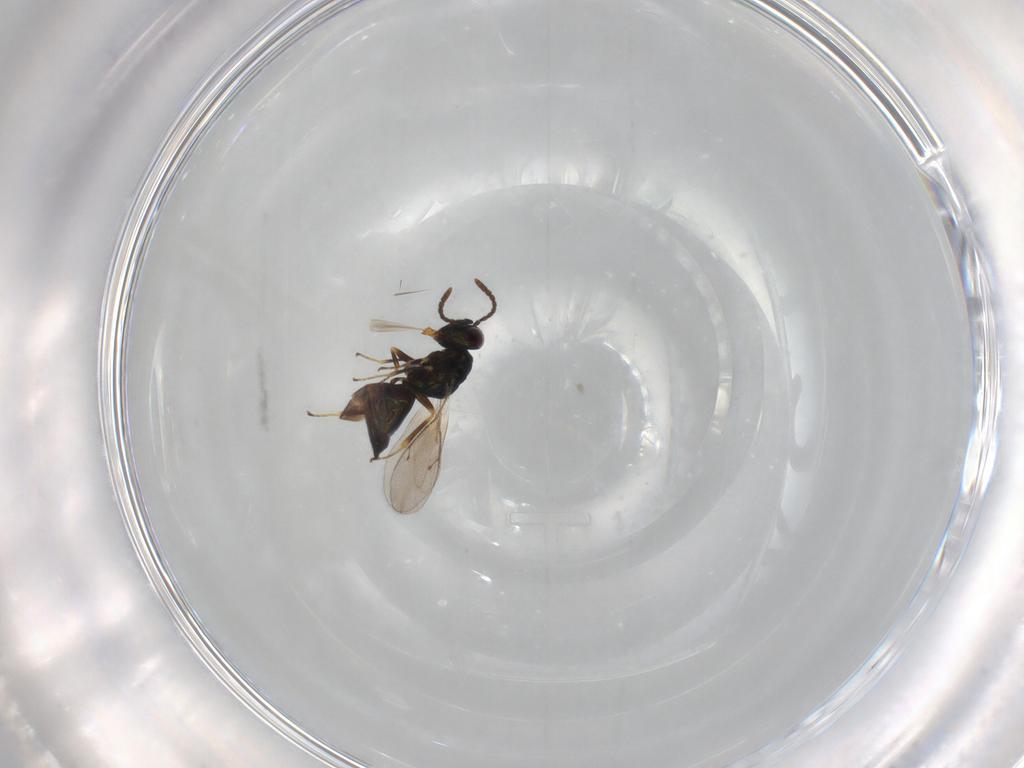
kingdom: Animalia
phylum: Arthropoda
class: Insecta
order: Hymenoptera
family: Pteromalidae
